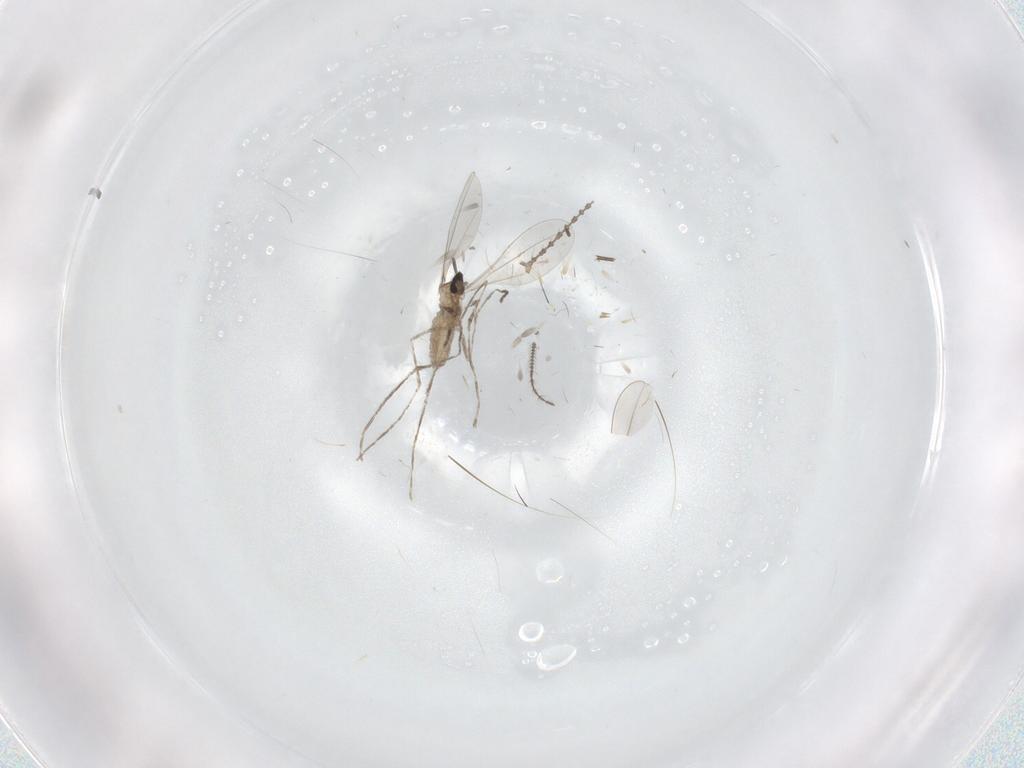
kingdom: Animalia
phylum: Arthropoda
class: Insecta
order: Diptera
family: Cecidomyiidae
